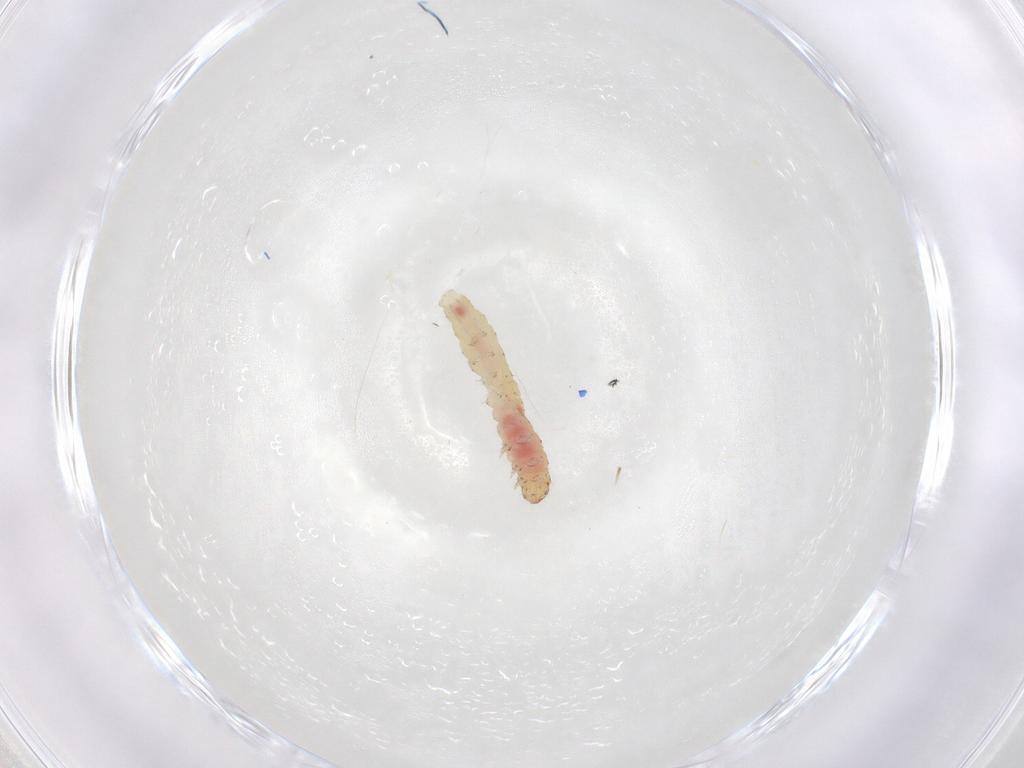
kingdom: Animalia
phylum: Arthropoda
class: Insecta
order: Lepidoptera
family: Gelechiidae
